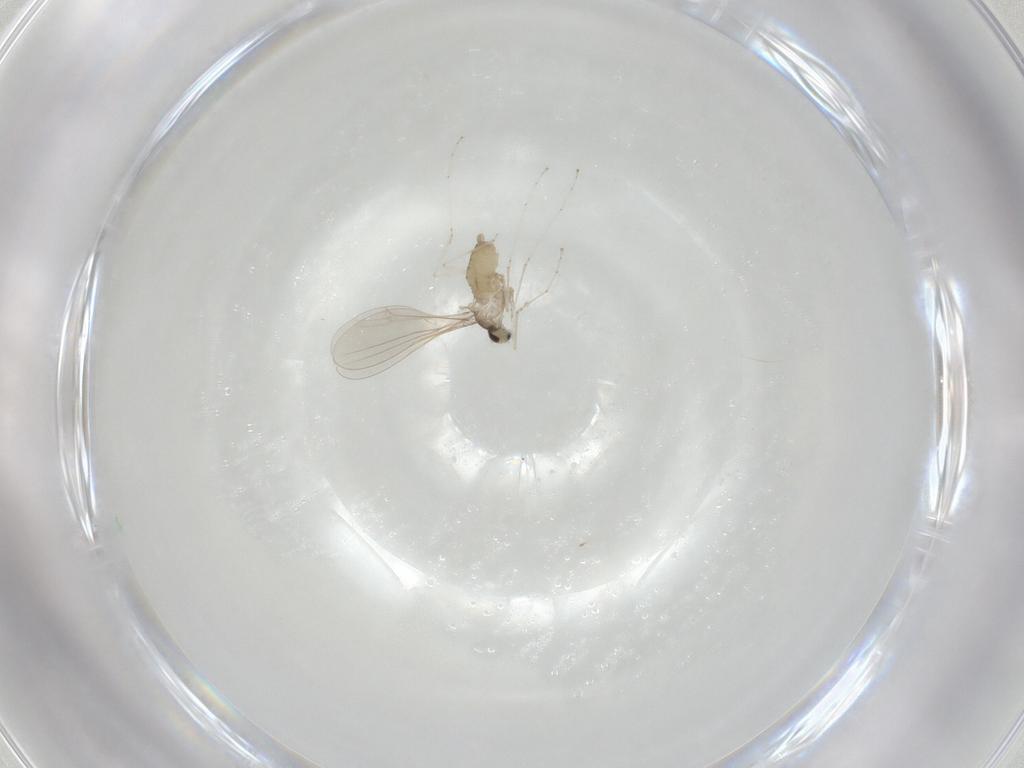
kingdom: Animalia
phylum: Arthropoda
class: Insecta
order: Diptera
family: Cecidomyiidae
